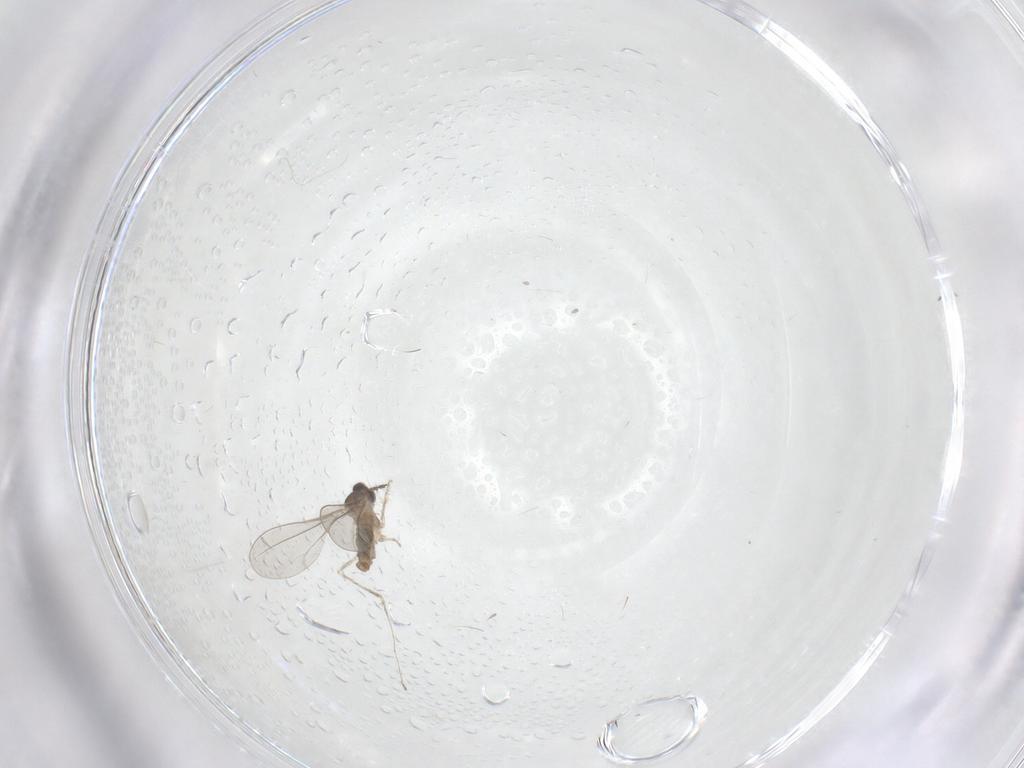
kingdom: Animalia
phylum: Arthropoda
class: Insecta
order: Diptera
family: Cecidomyiidae
